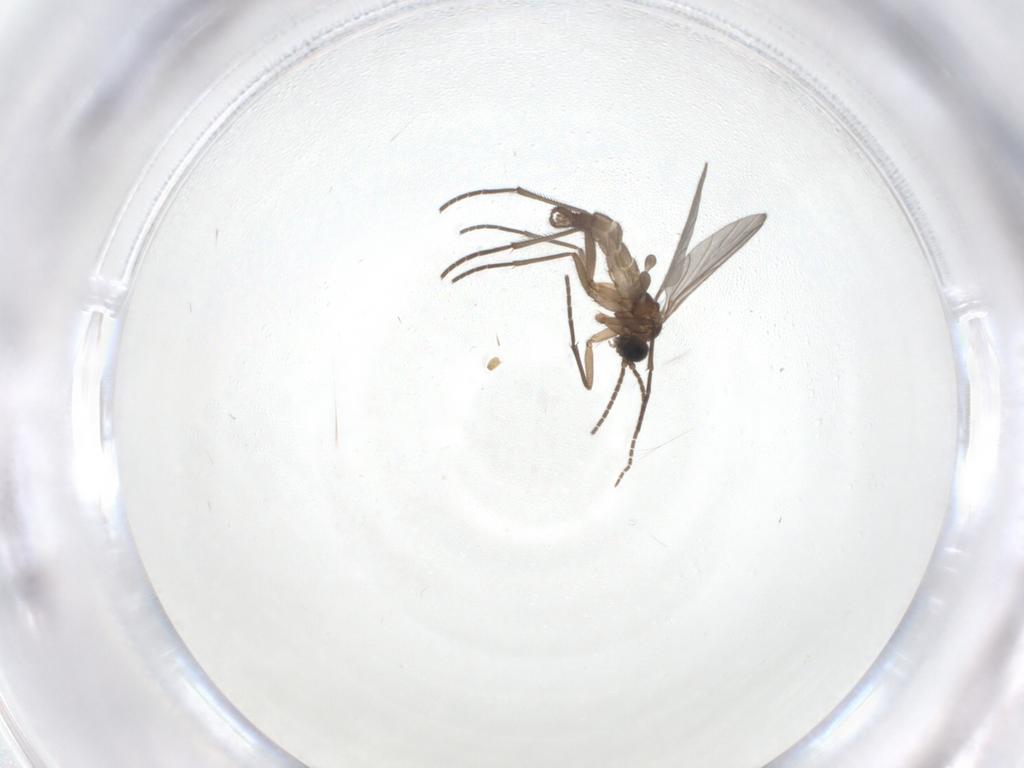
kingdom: Animalia
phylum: Arthropoda
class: Insecta
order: Diptera
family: Sciaridae
